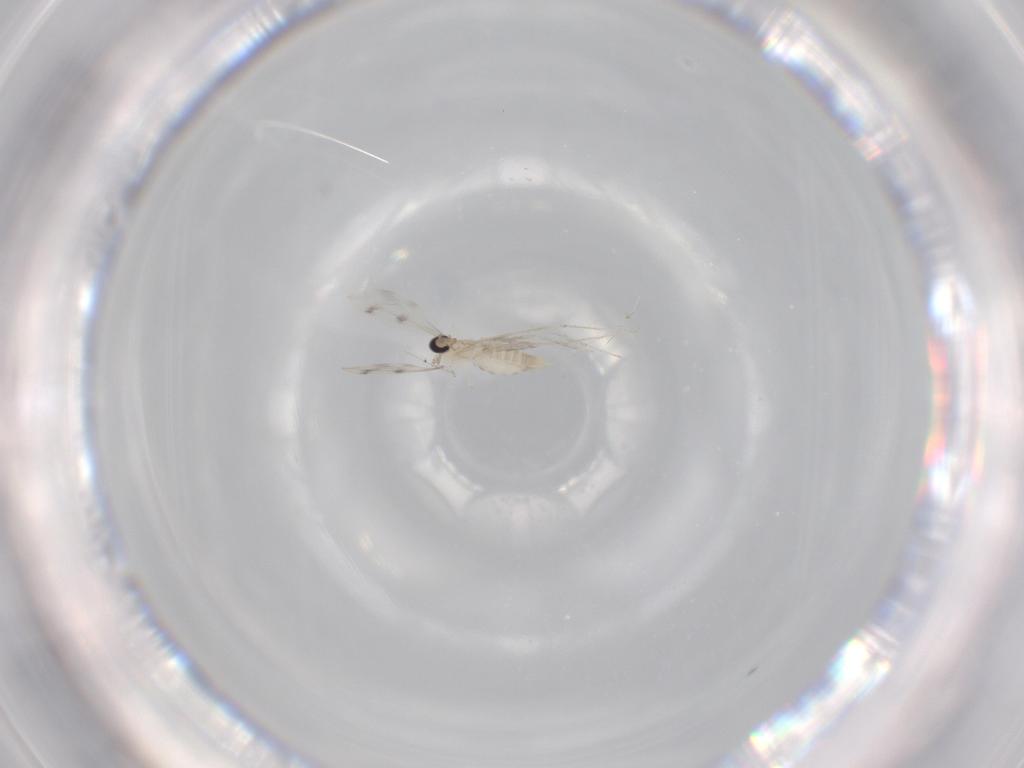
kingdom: Animalia
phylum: Arthropoda
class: Insecta
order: Diptera
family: Cecidomyiidae
